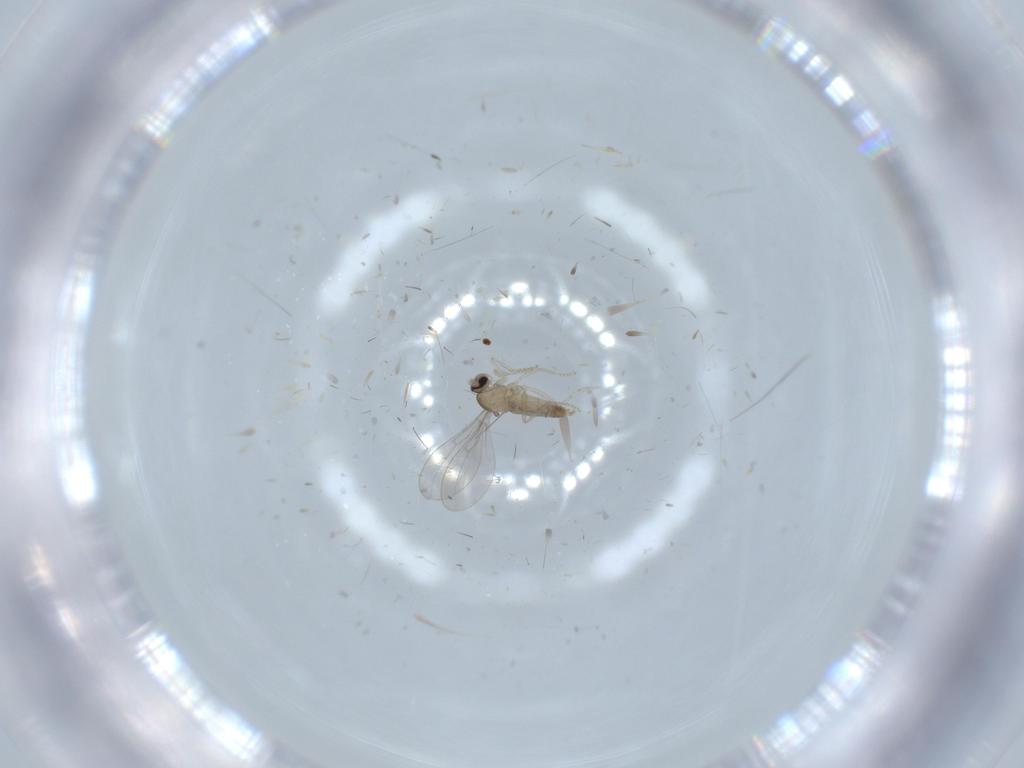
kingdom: Animalia
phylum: Arthropoda
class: Insecta
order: Diptera
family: Cecidomyiidae
